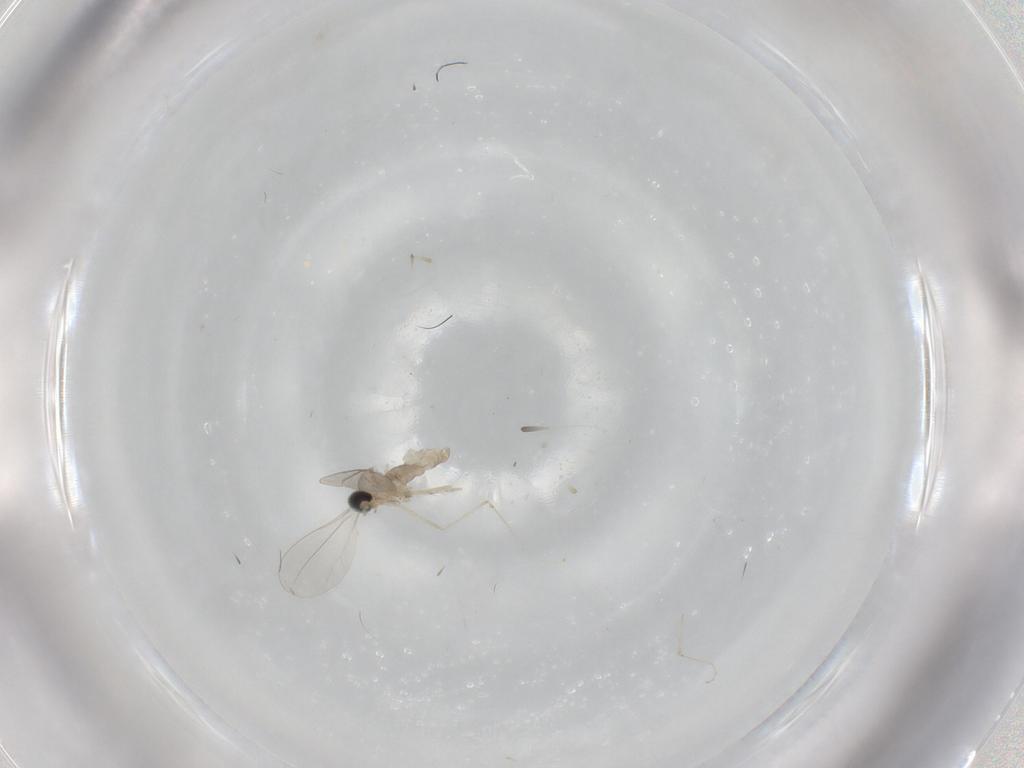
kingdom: Animalia
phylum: Arthropoda
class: Insecta
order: Diptera
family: Cecidomyiidae
